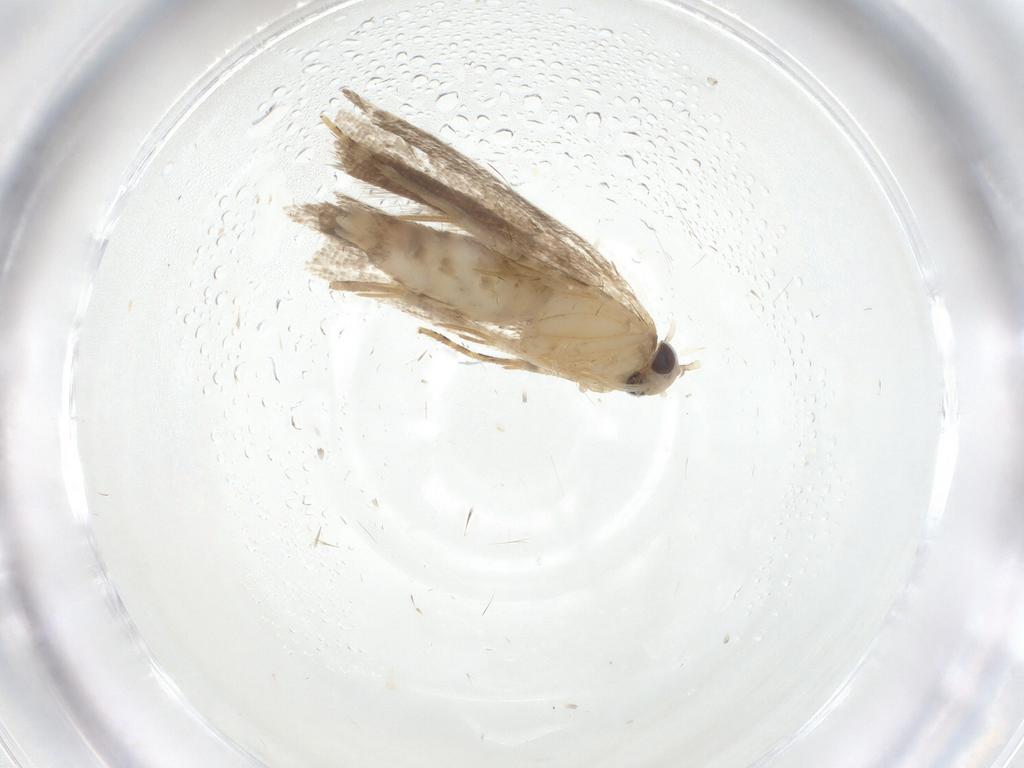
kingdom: Animalia
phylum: Arthropoda
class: Insecta
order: Lepidoptera
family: Erebidae
